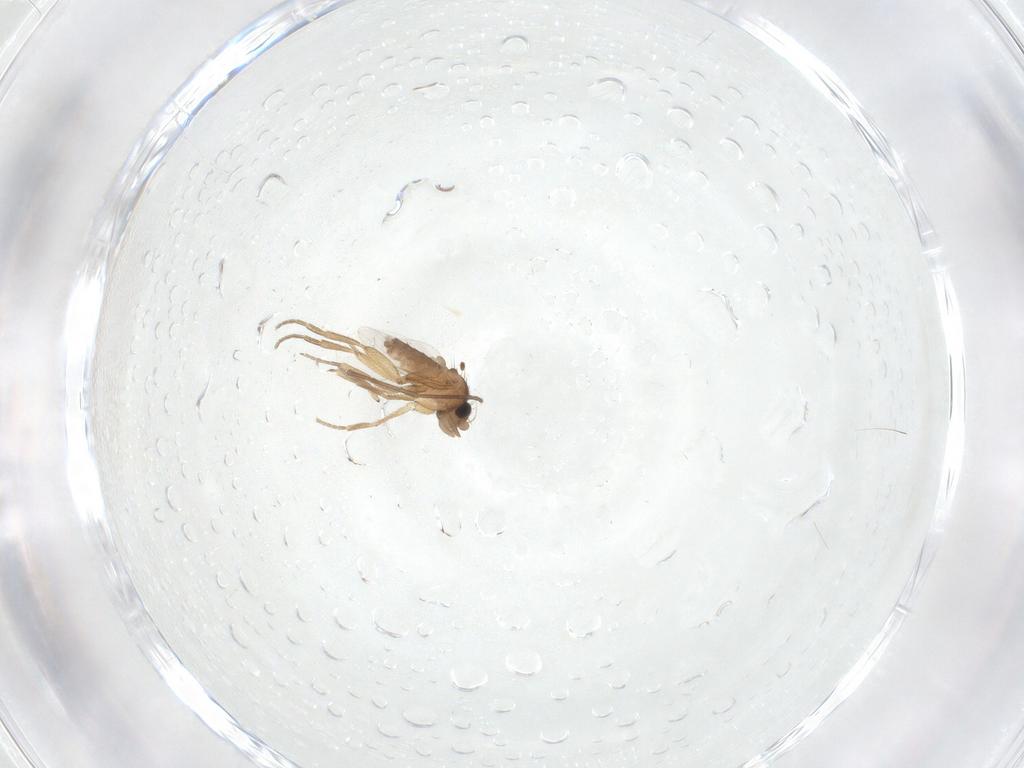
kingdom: Animalia
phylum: Arthropoda
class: Insecta
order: Diptera
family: Phoridae
